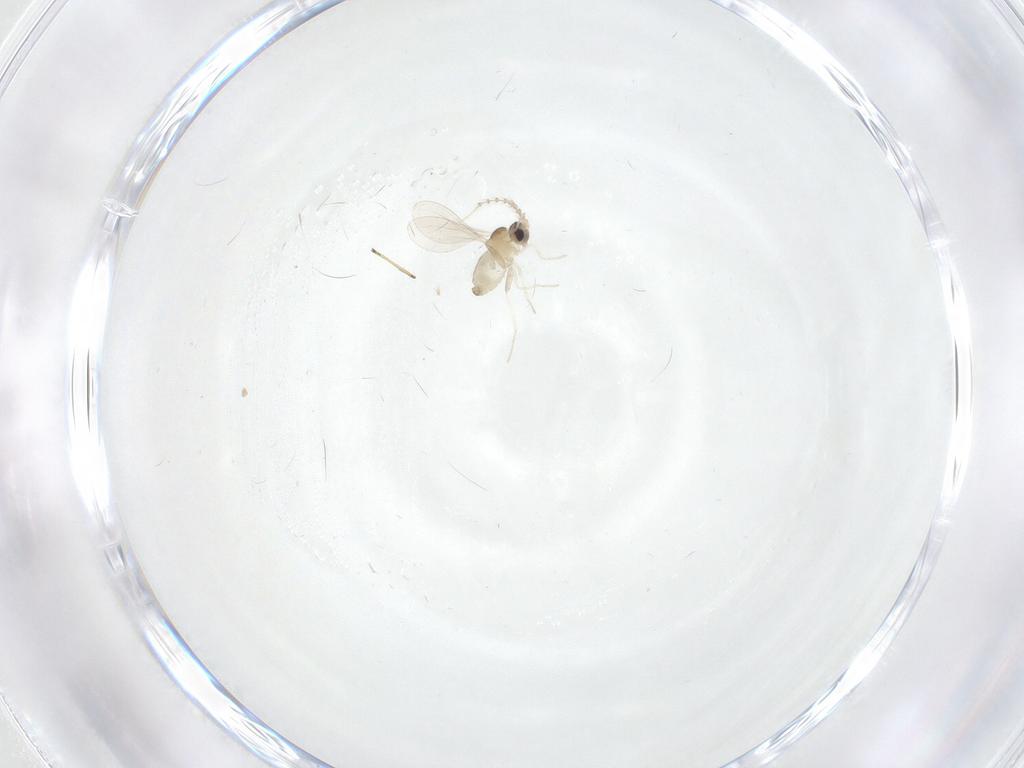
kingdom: Animalia
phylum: Arthropoda
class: Insecta
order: Diptera
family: Cecidomyiidae
